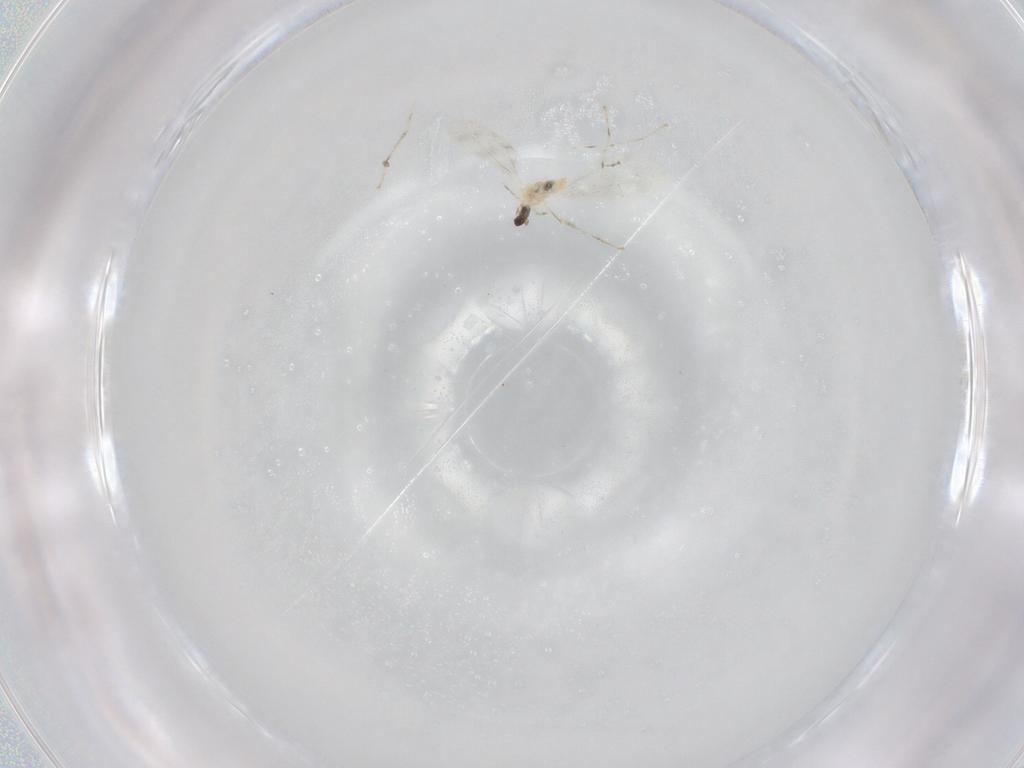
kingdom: Animalia
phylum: Arthropoda
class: Insecta
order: Diptera
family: Cecidomyiidae
